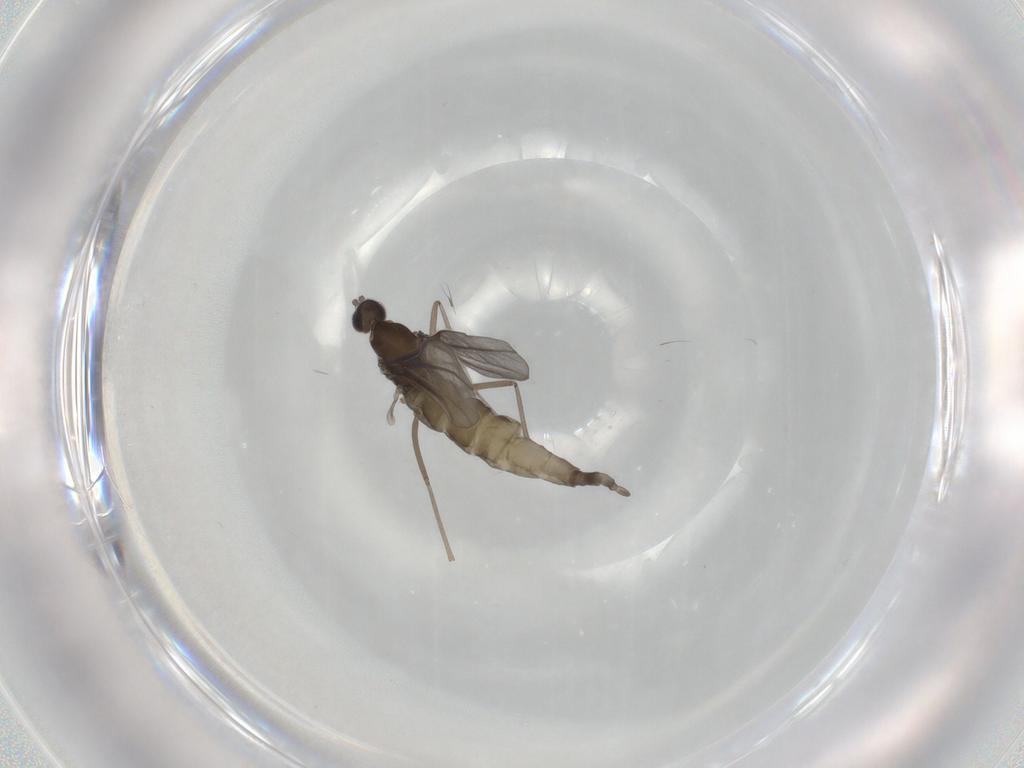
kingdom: Animalia
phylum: Arthropoda
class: Insecta
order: Diptera
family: Cecidomyiidae
